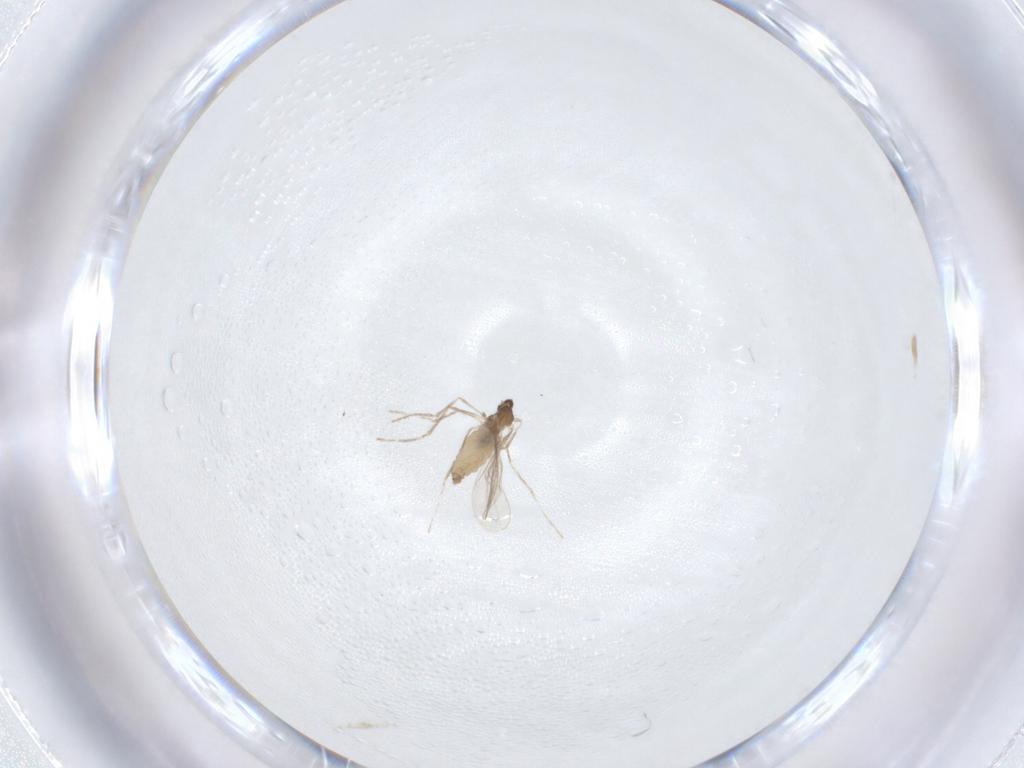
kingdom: Animalia
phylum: Arthropoda
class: Insecta
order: Diptera
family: Cecidomyiidae
